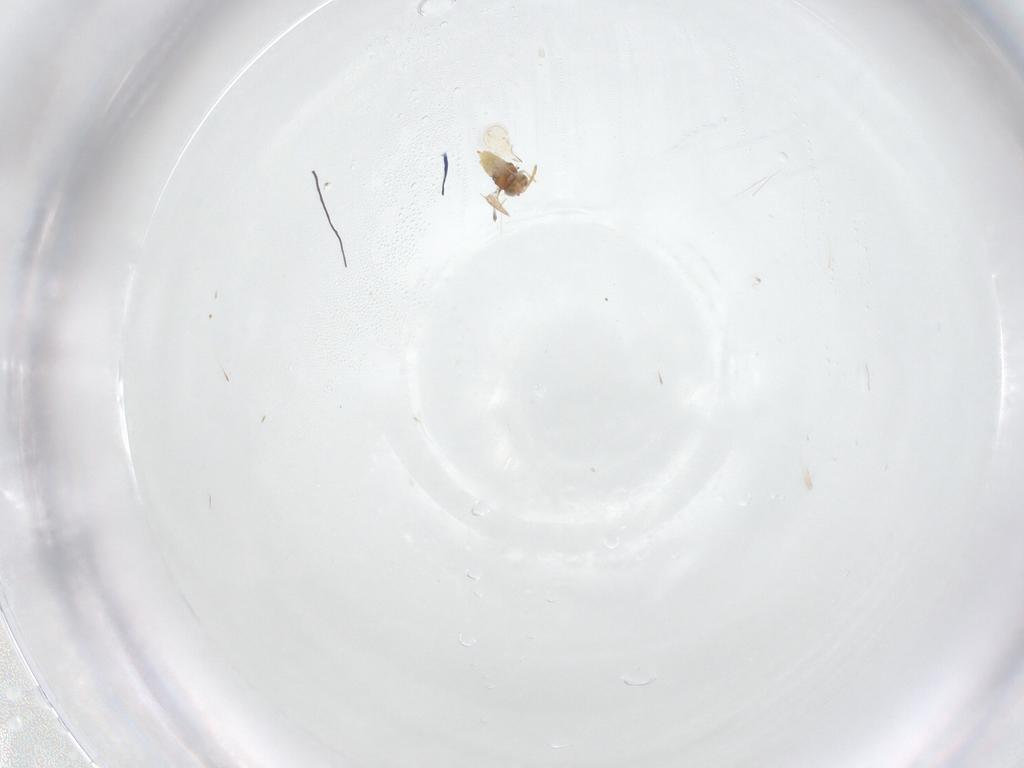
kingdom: Animalia
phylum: Arthropoda
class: Insecta
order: Hymenoptera
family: Aphelinidae
